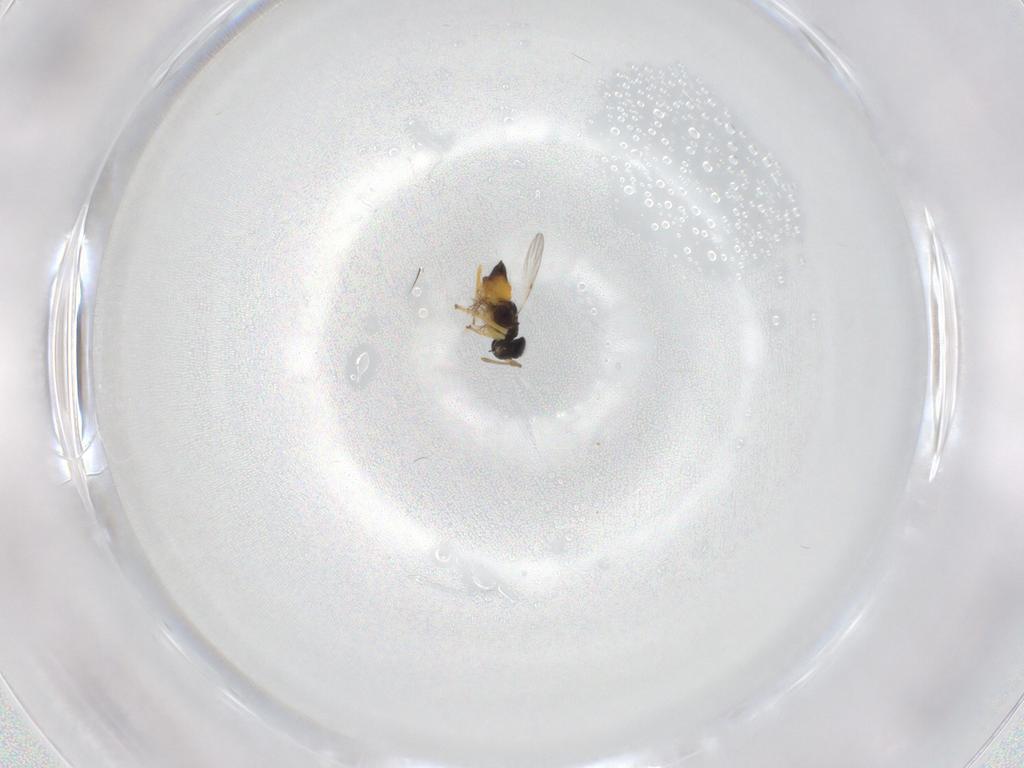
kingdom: Animalia
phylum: Arthropoda
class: Insecta
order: Hymenoptera
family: Encyrtidae
